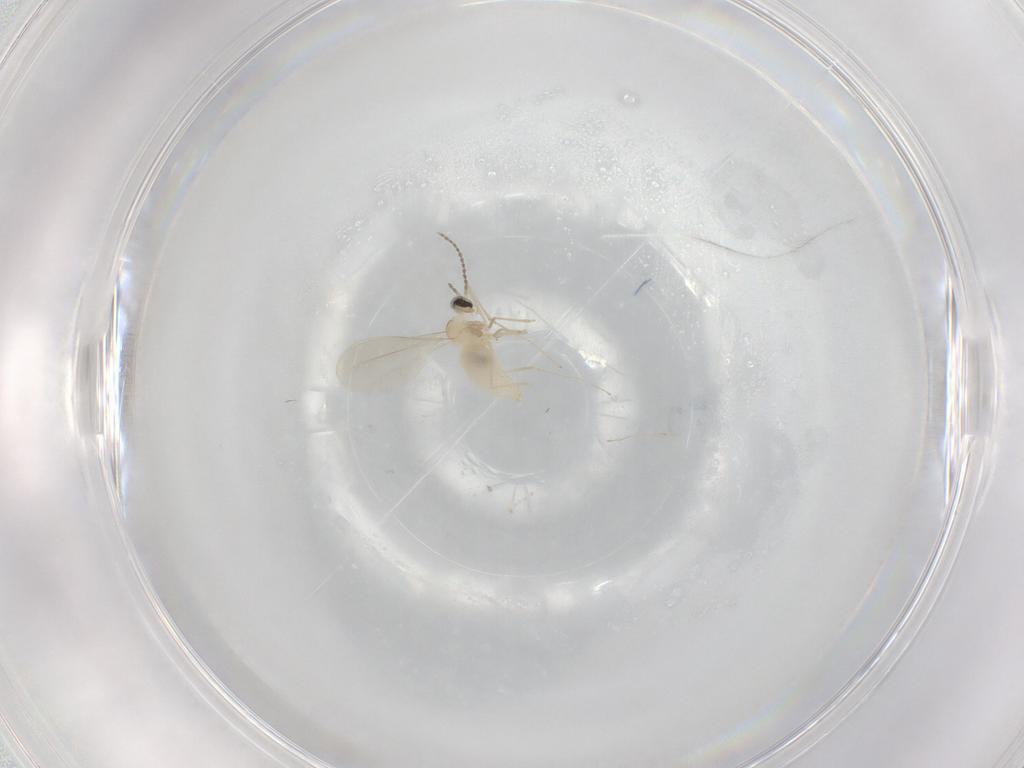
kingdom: Animalia
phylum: Arthropoda
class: Insecta
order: Diptera
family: Cecidomyiidae
